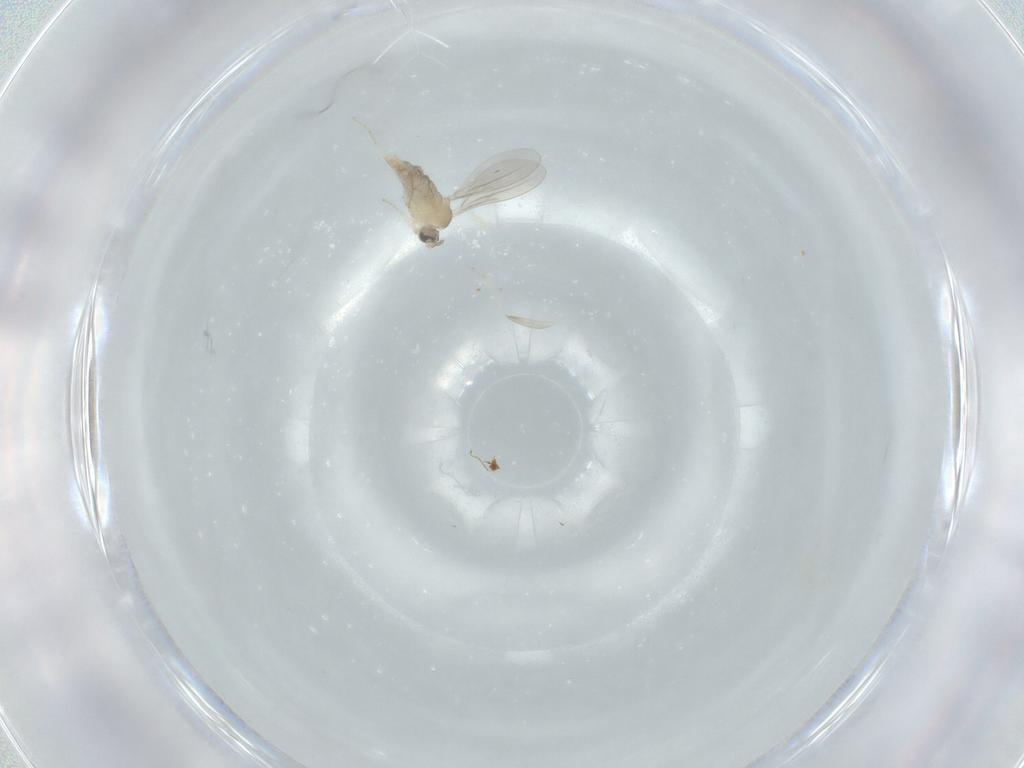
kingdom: Animalia
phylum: Arthropoda
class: Insecta
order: Diptera
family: Cecidomyiidae
